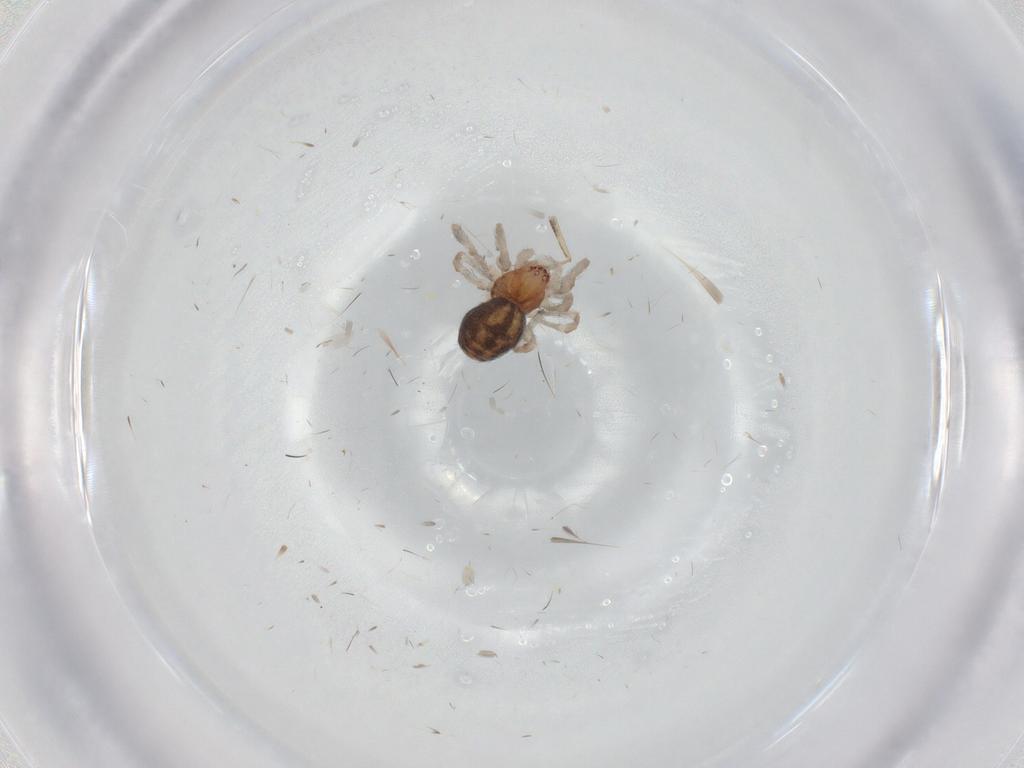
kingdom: Animalia
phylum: Arthropoda
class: Arachnida
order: Araneae
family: Dictynidae
